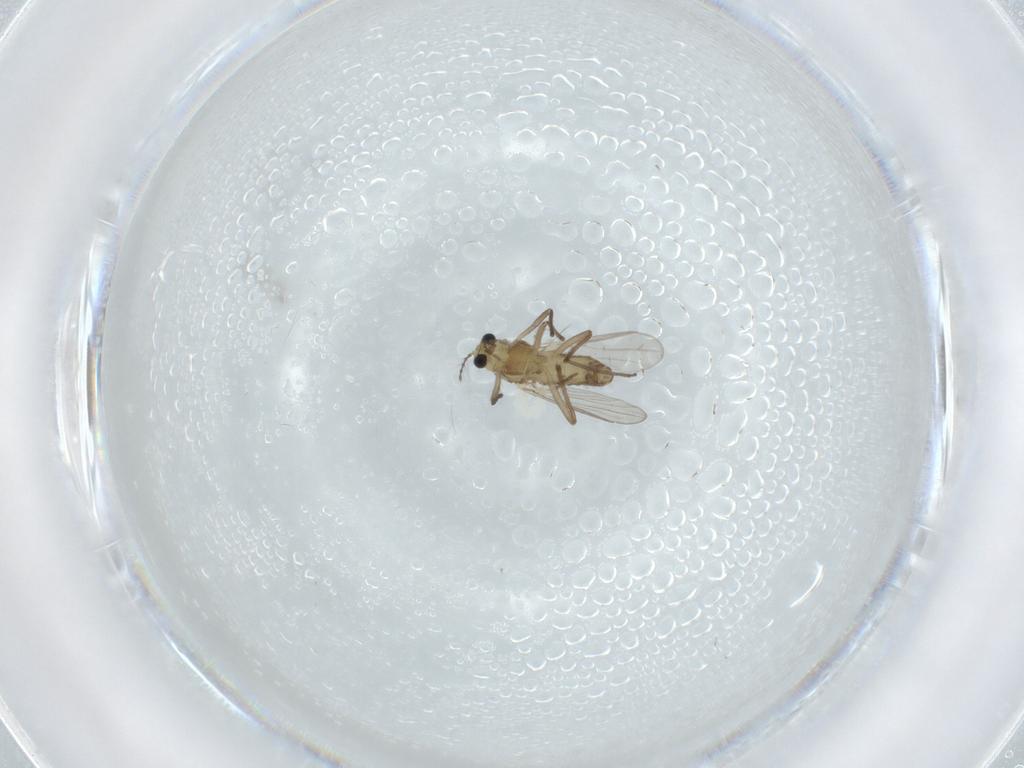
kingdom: Animalia
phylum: Arthropoda
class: Insecta
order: Diptera
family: Chironomidae
